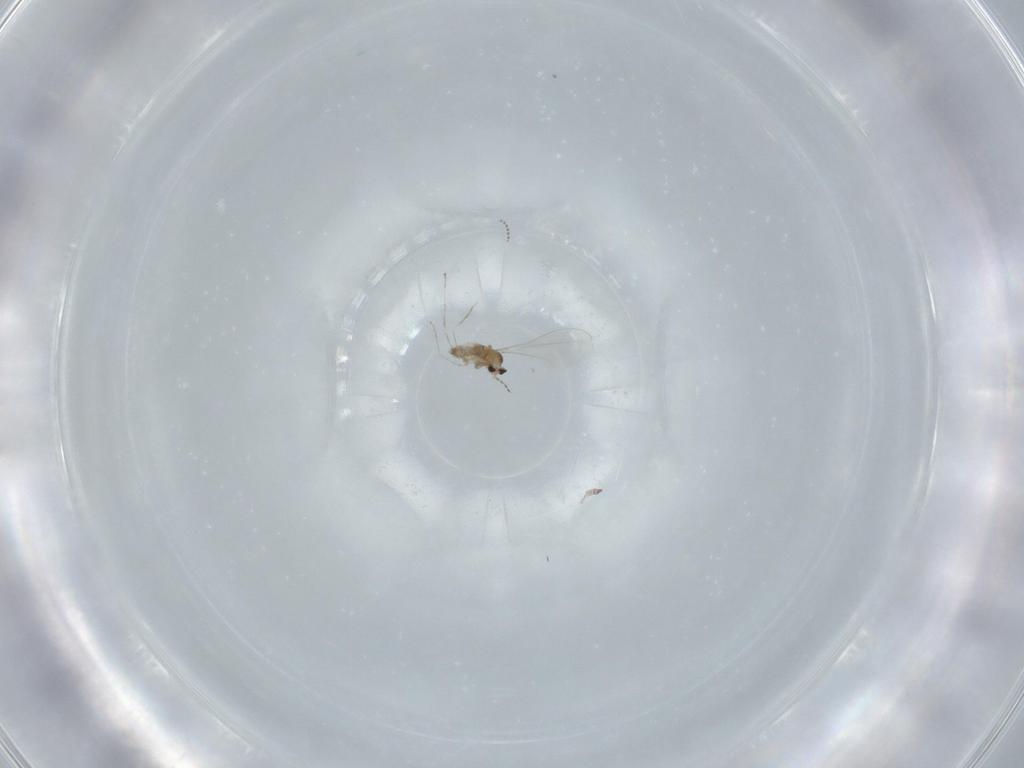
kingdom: Animalia
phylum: Arthropoda
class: Insecta
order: Diptera
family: Cecidomyiidae
